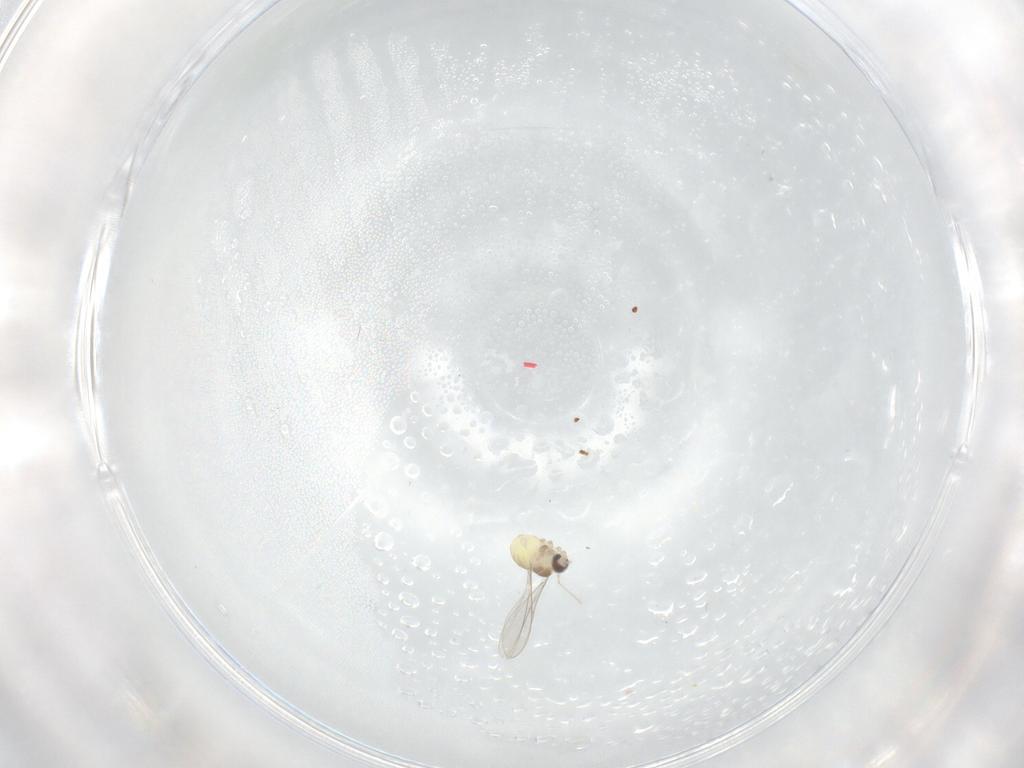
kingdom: Animalia
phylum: Arthropoda
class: Insecta
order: Diptera
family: Cecidomyiidae
